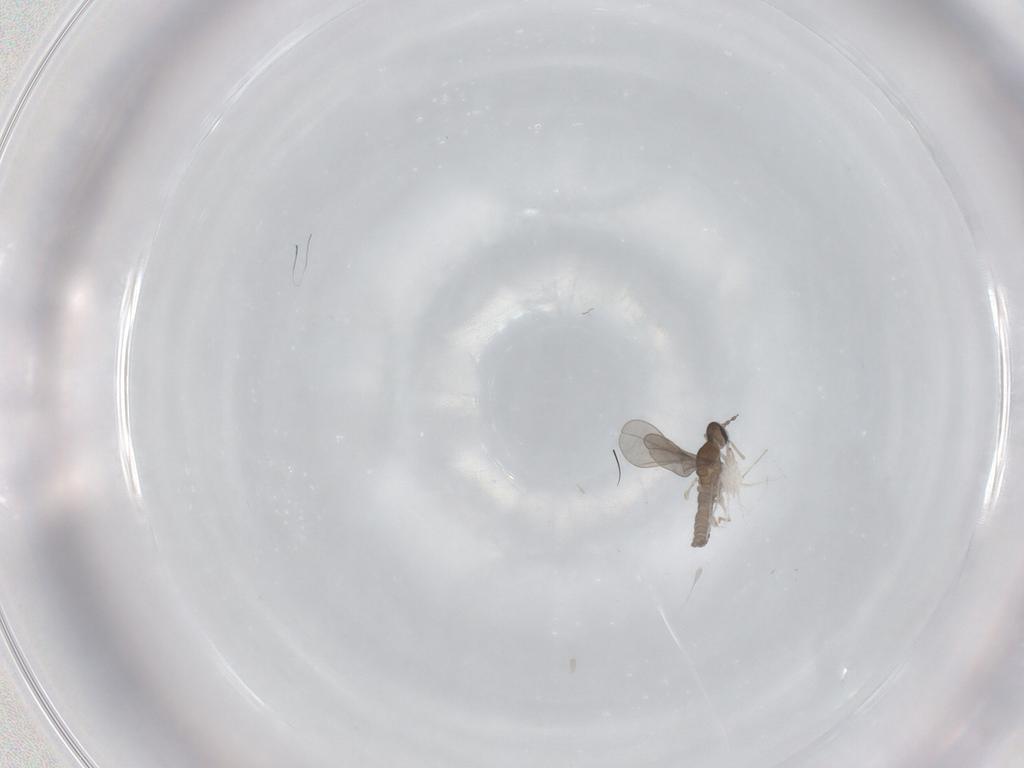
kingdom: Animalia
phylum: Arthropoda
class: Insecta
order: Diptera
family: Cecidomyiidae
